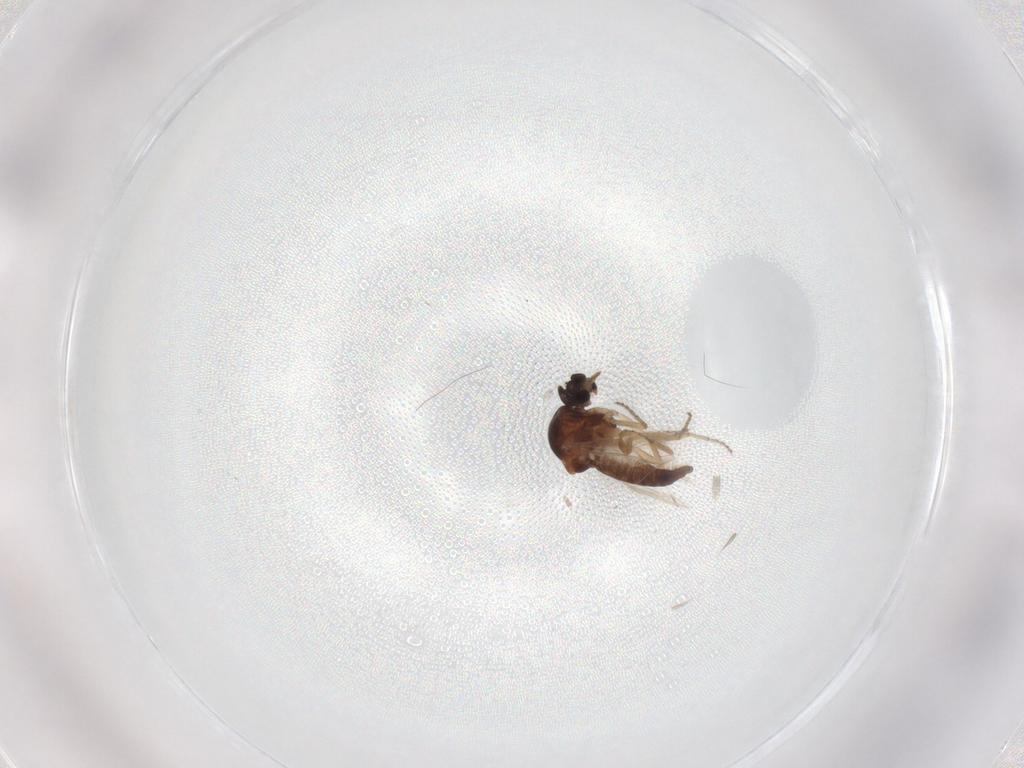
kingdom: Animalia
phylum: Arthropoda
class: Insecta
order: Diptera
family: Ceratopogonidae
